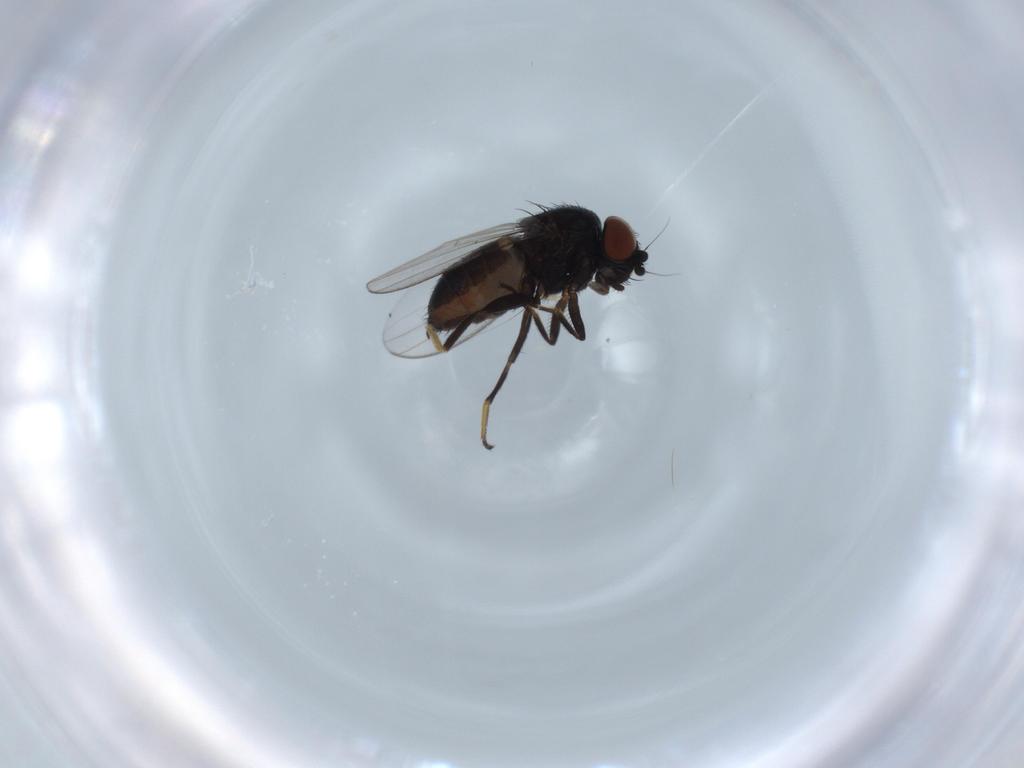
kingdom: Animalia
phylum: Arthropoda
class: Insecta
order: Diptera
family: Milichiidae
